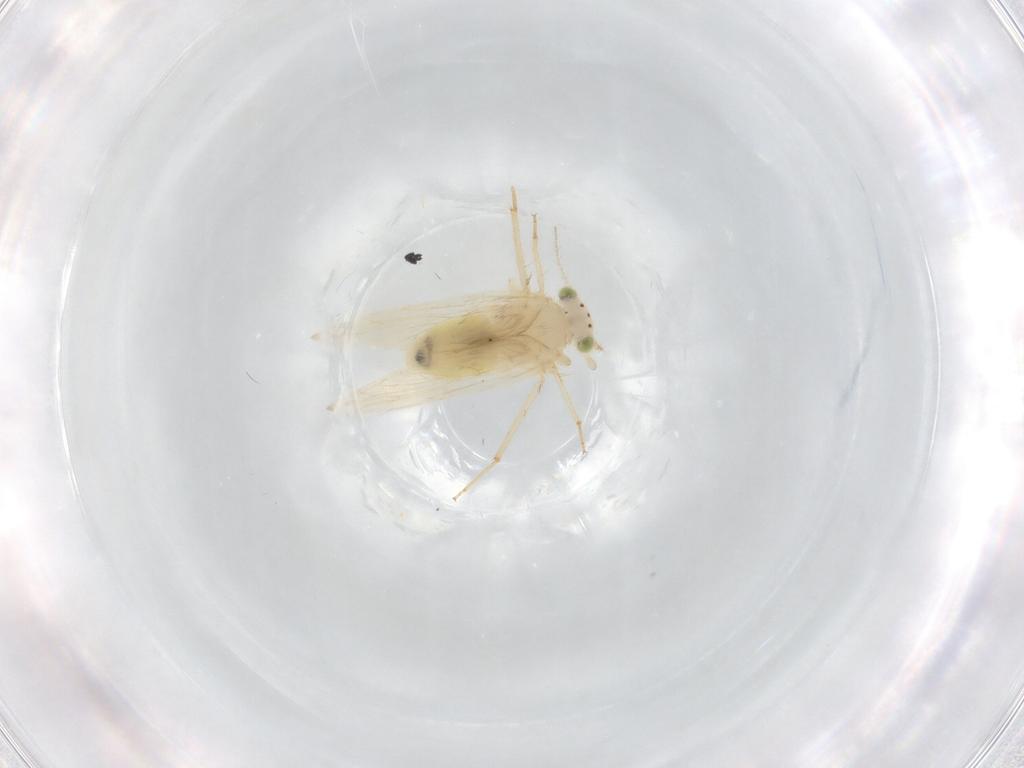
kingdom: Animalia
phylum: Arthropoda
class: Insecta
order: Psocodea
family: Lepidopsocidae
